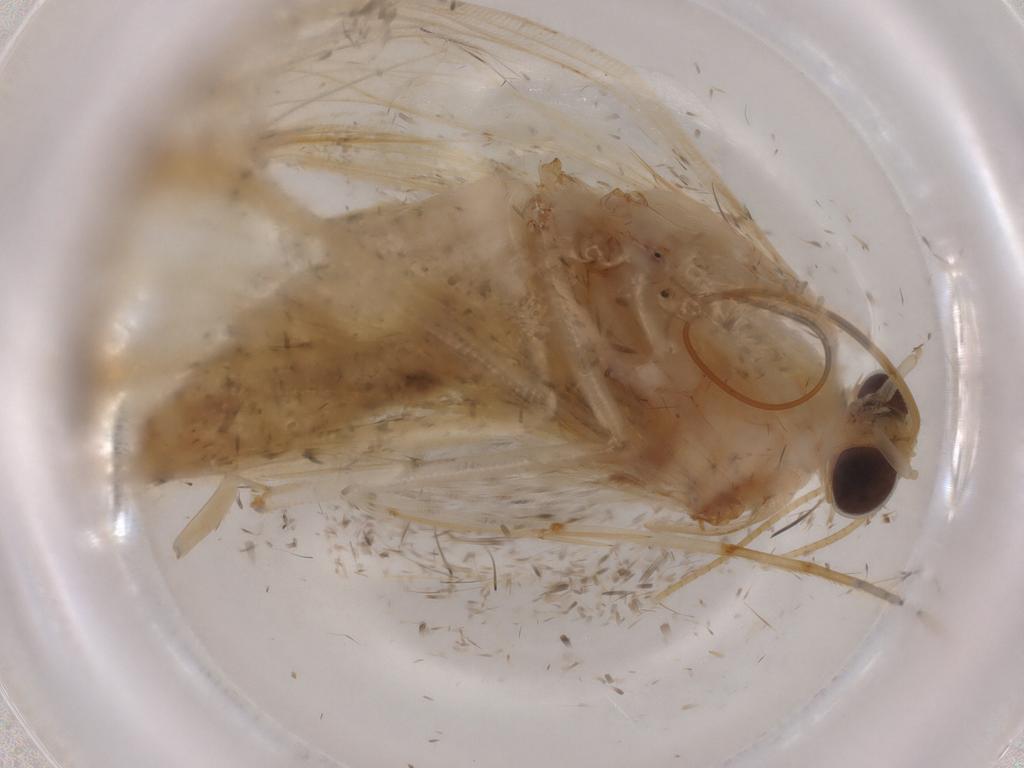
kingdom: Animalia
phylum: Arthropoda
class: Insecta
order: Lepidoptera
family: Crambidae
